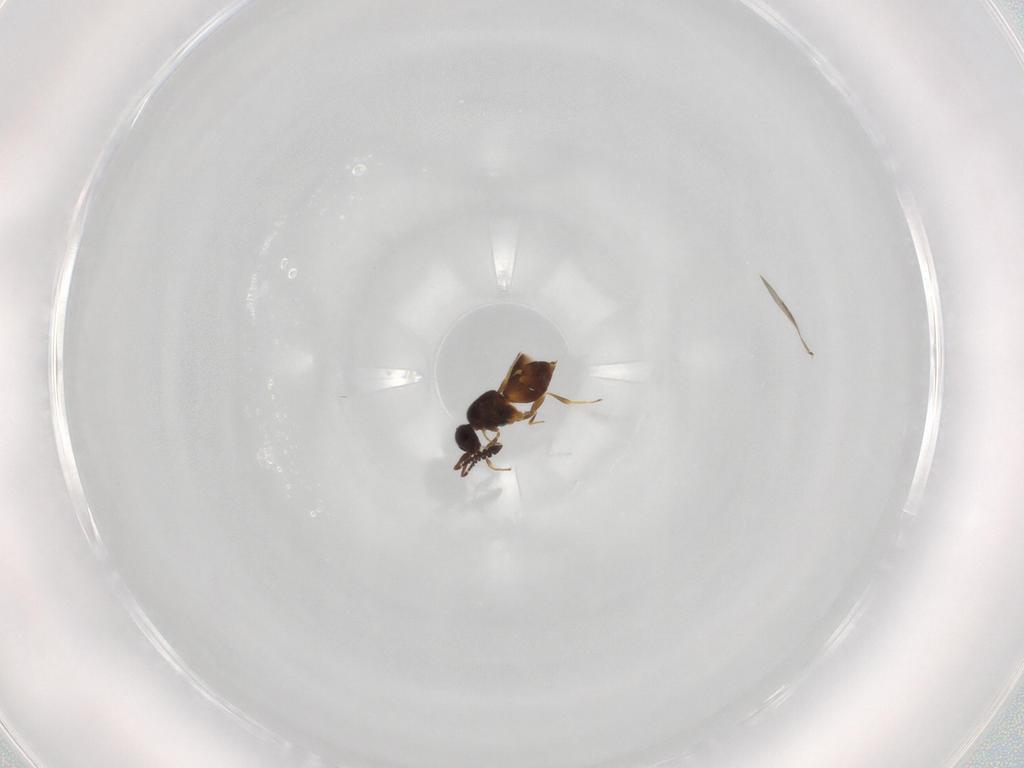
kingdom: Animalia
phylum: Arthropoda
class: Insecta
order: Hymenoptera
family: Ceraphronidae
